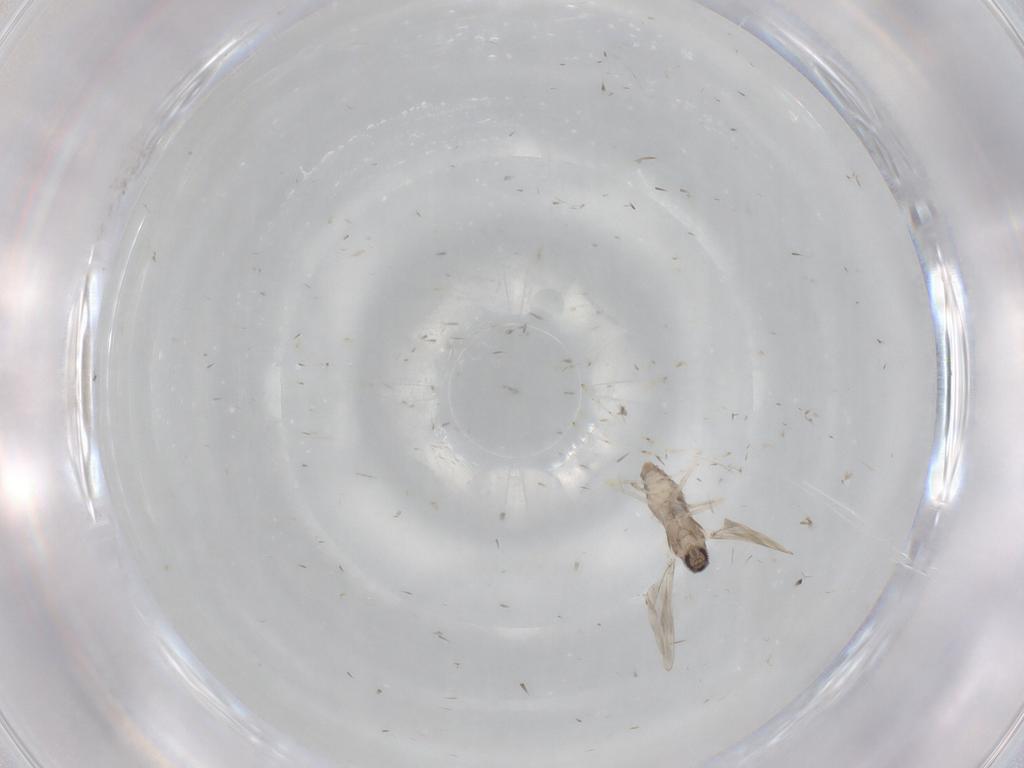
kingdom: Animalia
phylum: Arthropoda
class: Insecta
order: Diptera
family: Cecidomyiidae
